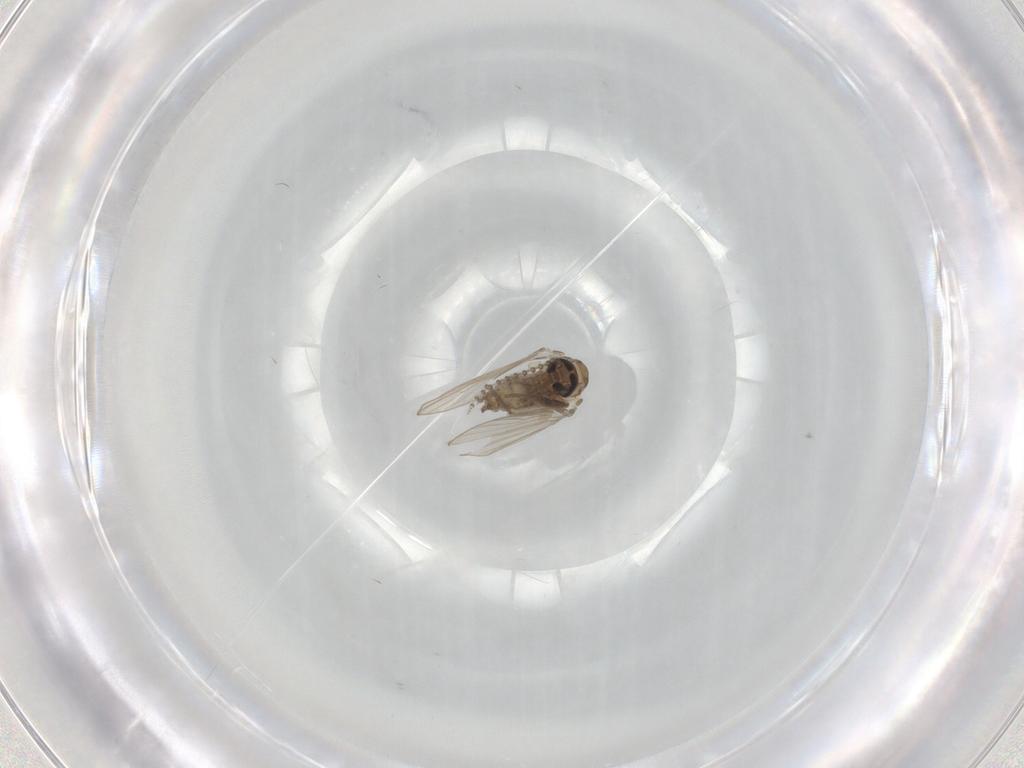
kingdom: Animalia
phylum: Arthropoda
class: Insecta
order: Diptera
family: Psychodidae
